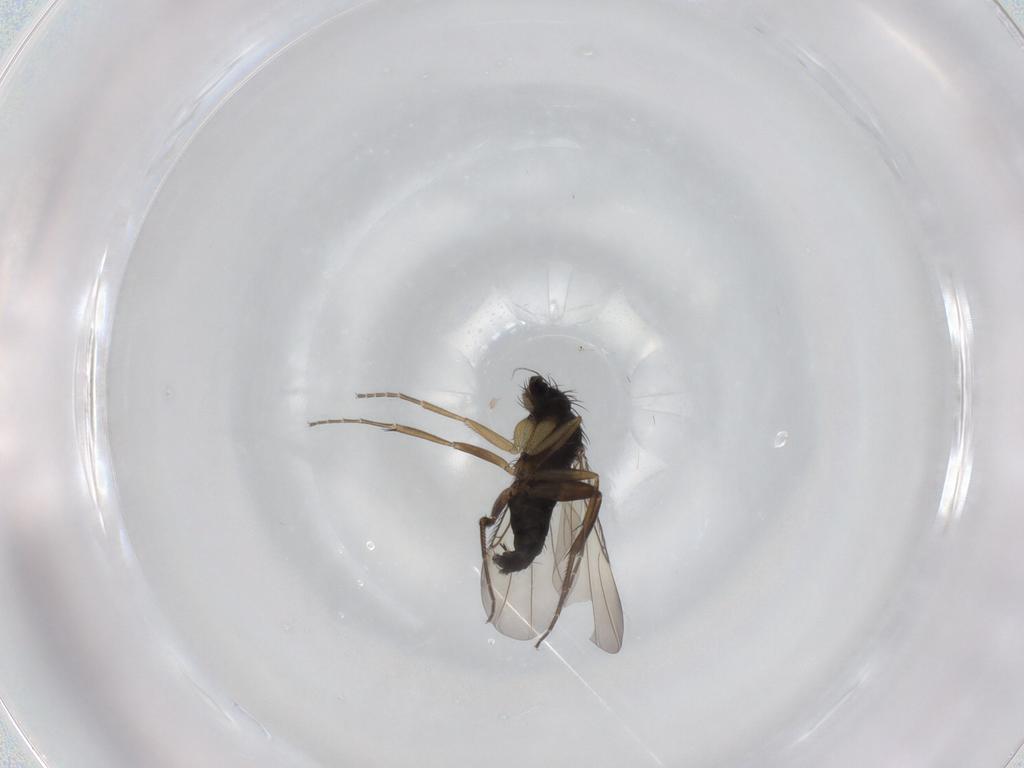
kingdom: Animalia
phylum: Arthropoda
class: Insecta
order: Diptera
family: Phoridae
